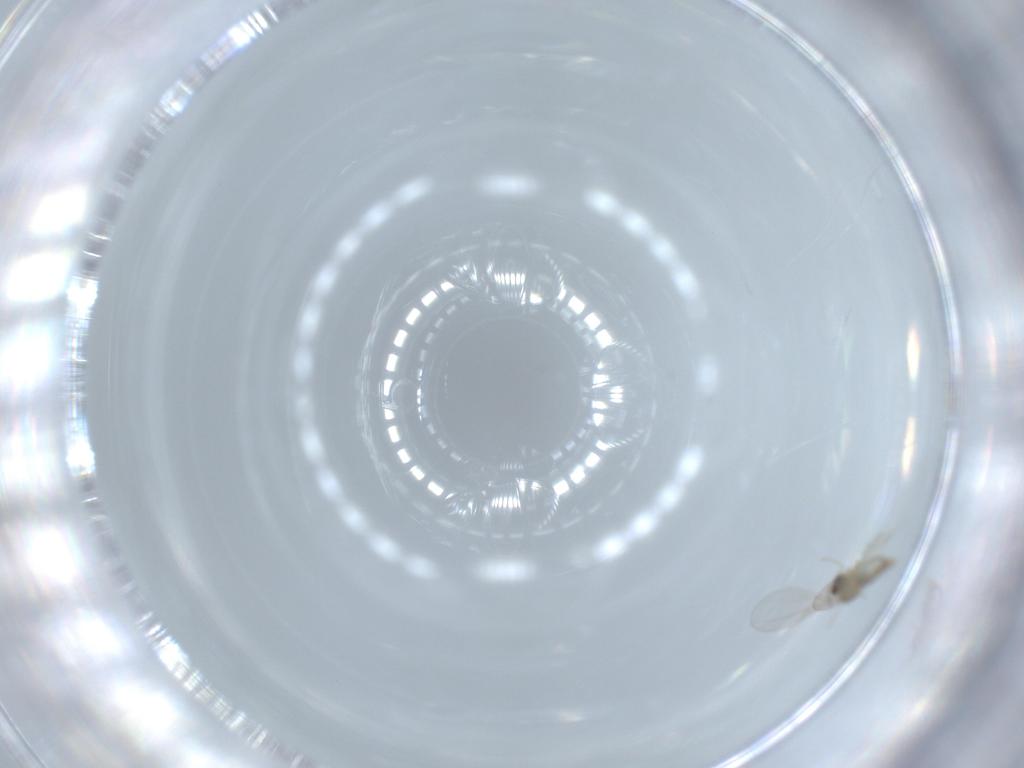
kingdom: Animalia
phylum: Arthropoda
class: Insecta
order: Diptera
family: Cecidomyiidae
